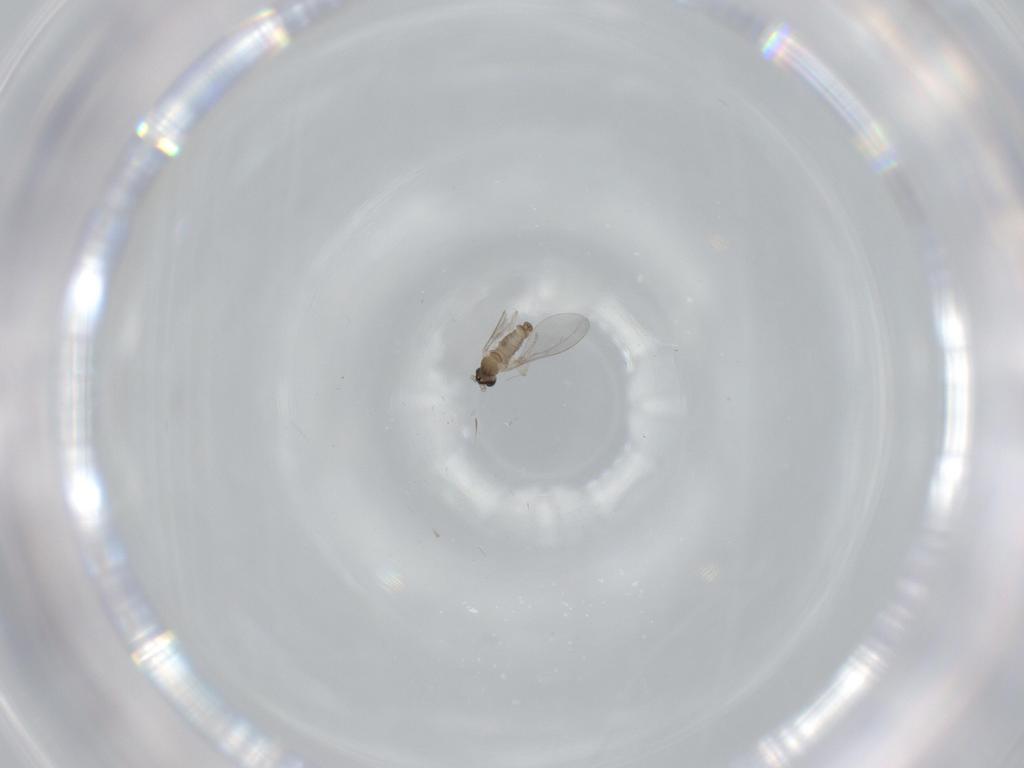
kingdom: Animalia
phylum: Arthropoda
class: Insecta
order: Diptera
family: Cecidomyiidae
